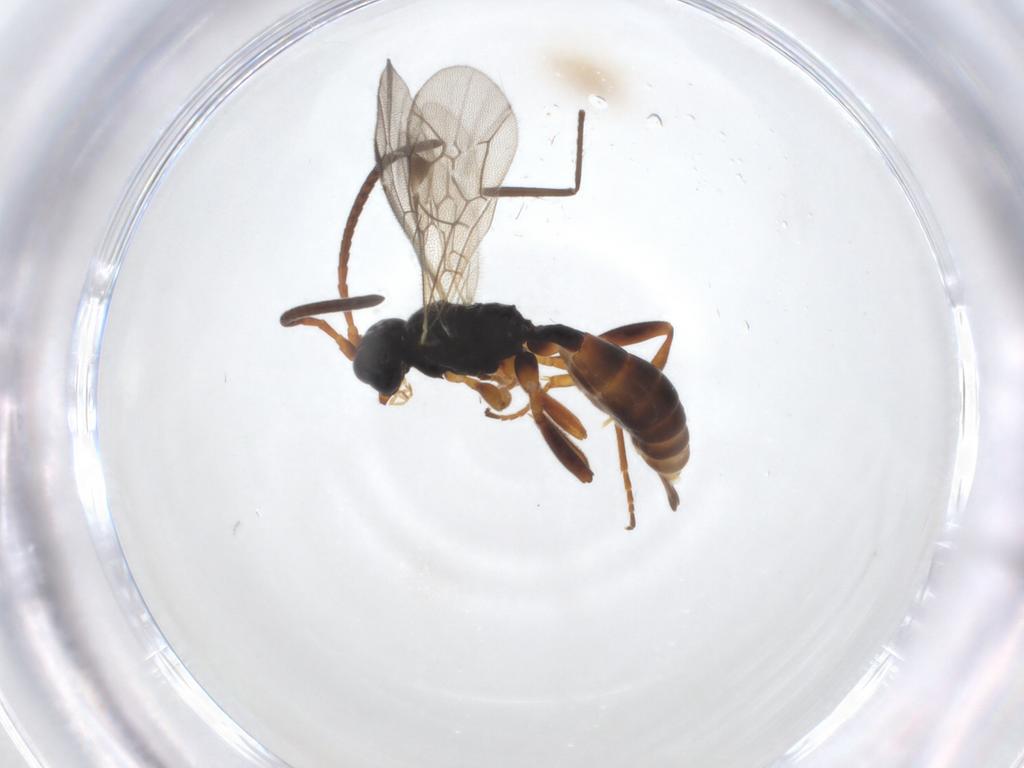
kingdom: Animalia
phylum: Arthropoda
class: Insecta
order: Hymenoptera
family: Ichneumonidae
